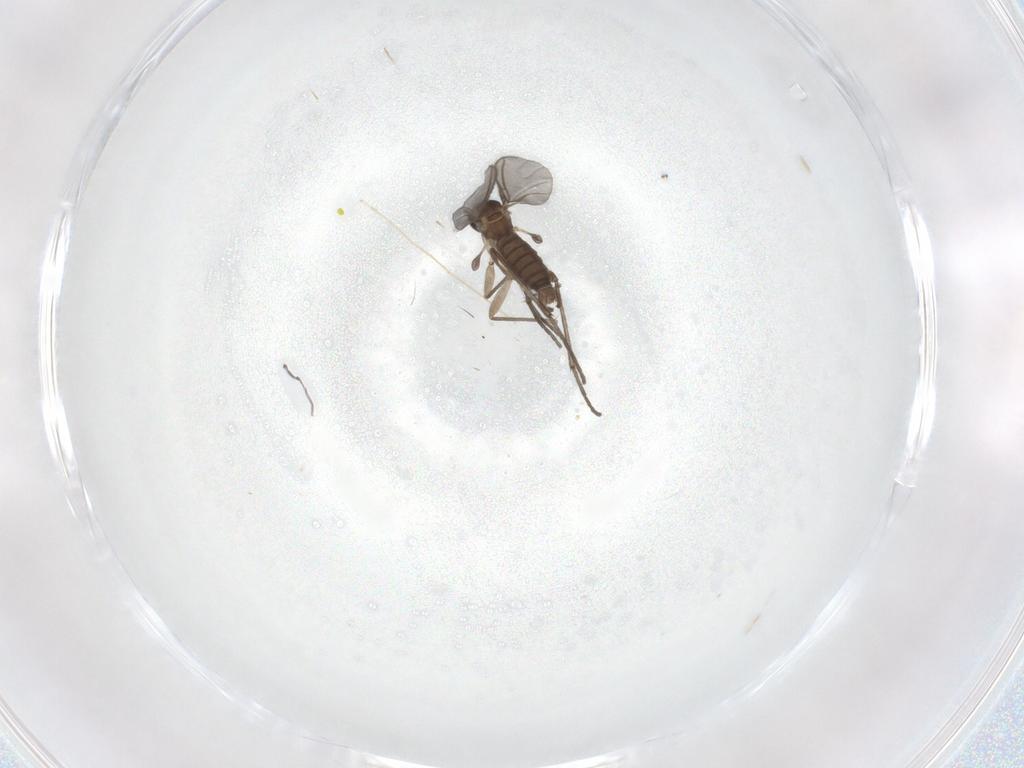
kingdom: Animalia
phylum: Arthropoda
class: Insecta
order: Diptera
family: Sciaridae
